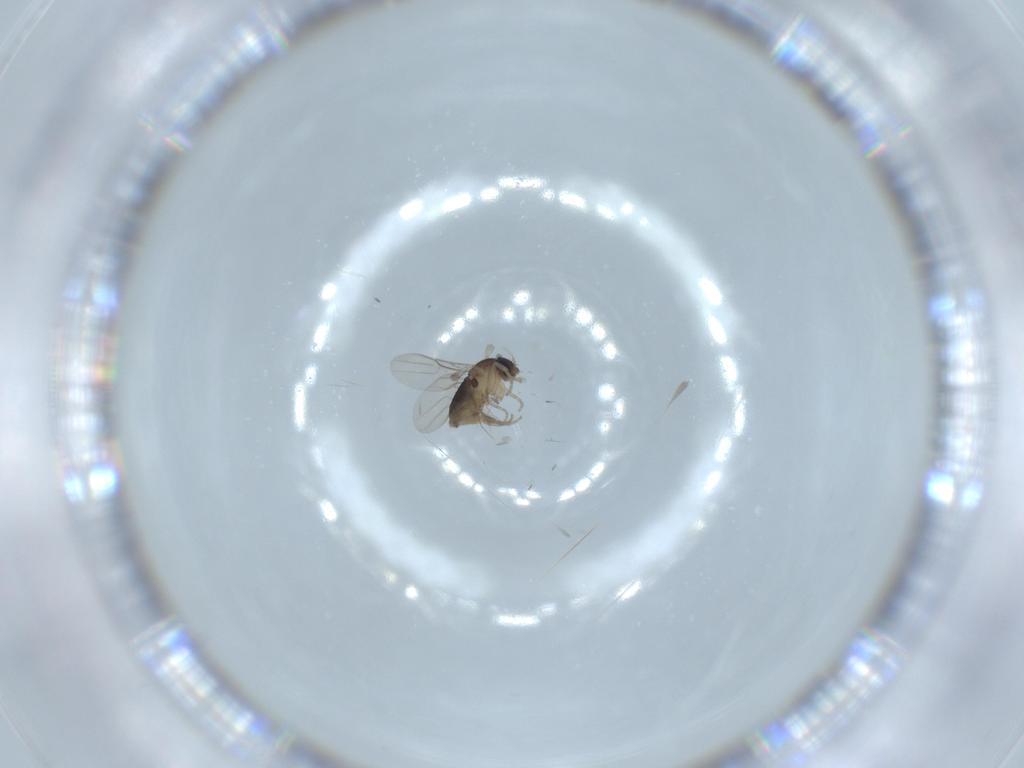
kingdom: Animalia
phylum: Arthropoda
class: Insecta
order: Diptera
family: Phoridae
